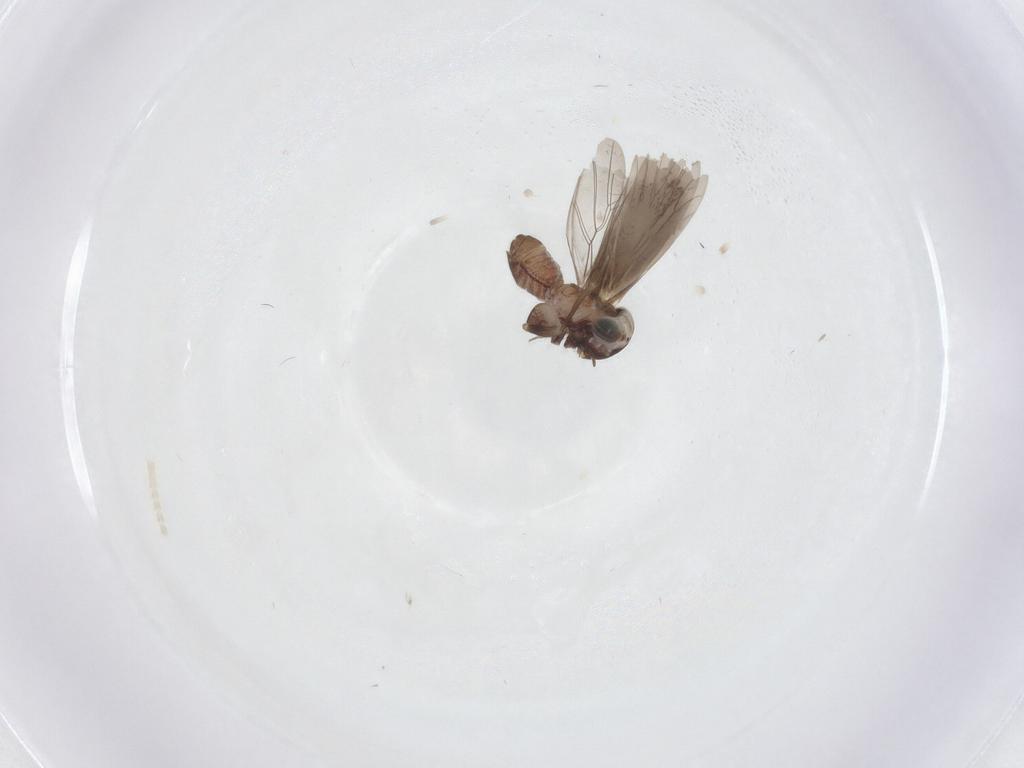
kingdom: Animalia
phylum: Arthropoda
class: Insecta
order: Psocodea
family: Amphientomidae
